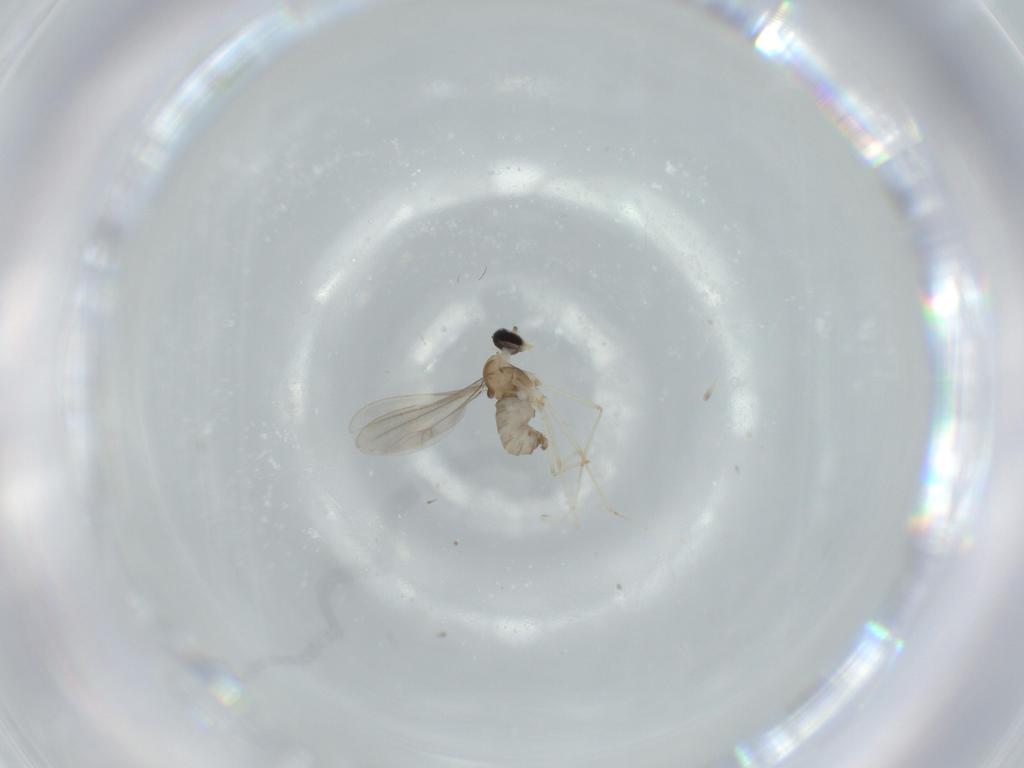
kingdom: Animalia
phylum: Arthropoda
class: Insecta
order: Diptera
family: Cecidomyiidae
